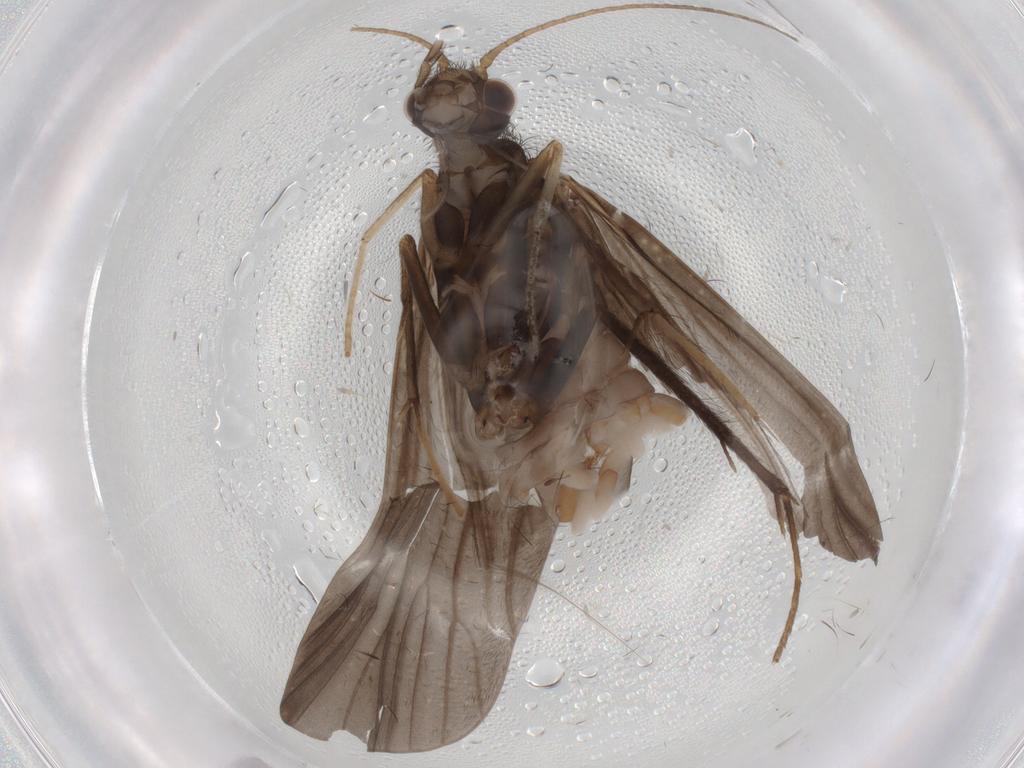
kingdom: Animalia
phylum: Arthropoda
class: Insecta
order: Trichoptera
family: Hydropsychidae
